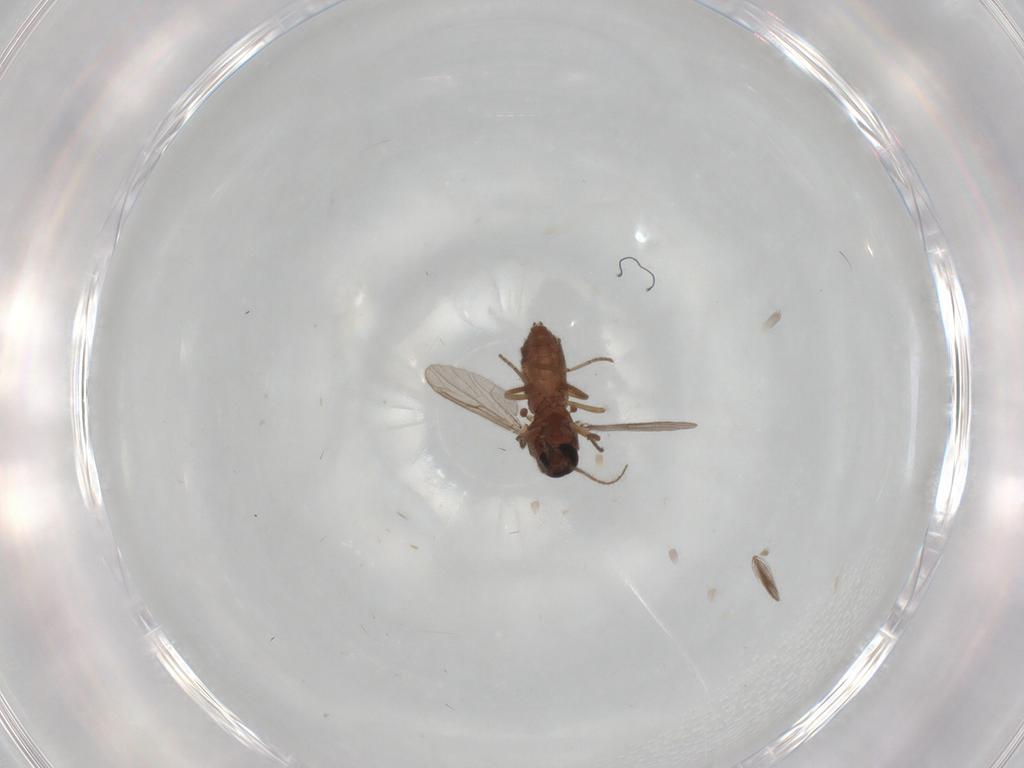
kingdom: Animalia
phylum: Arthropoda
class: Insecta
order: Diptera
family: Ceratopogonidae
